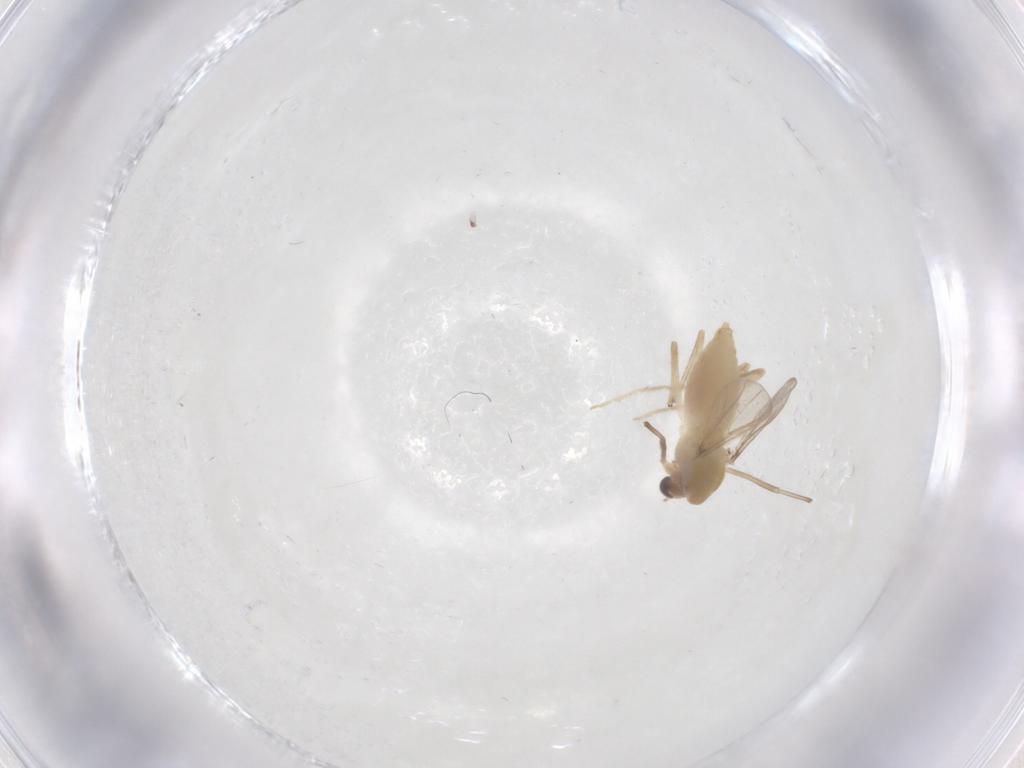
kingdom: Animalia
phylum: Arthropoda
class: Insecta
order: Diptera
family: Chironomidae
